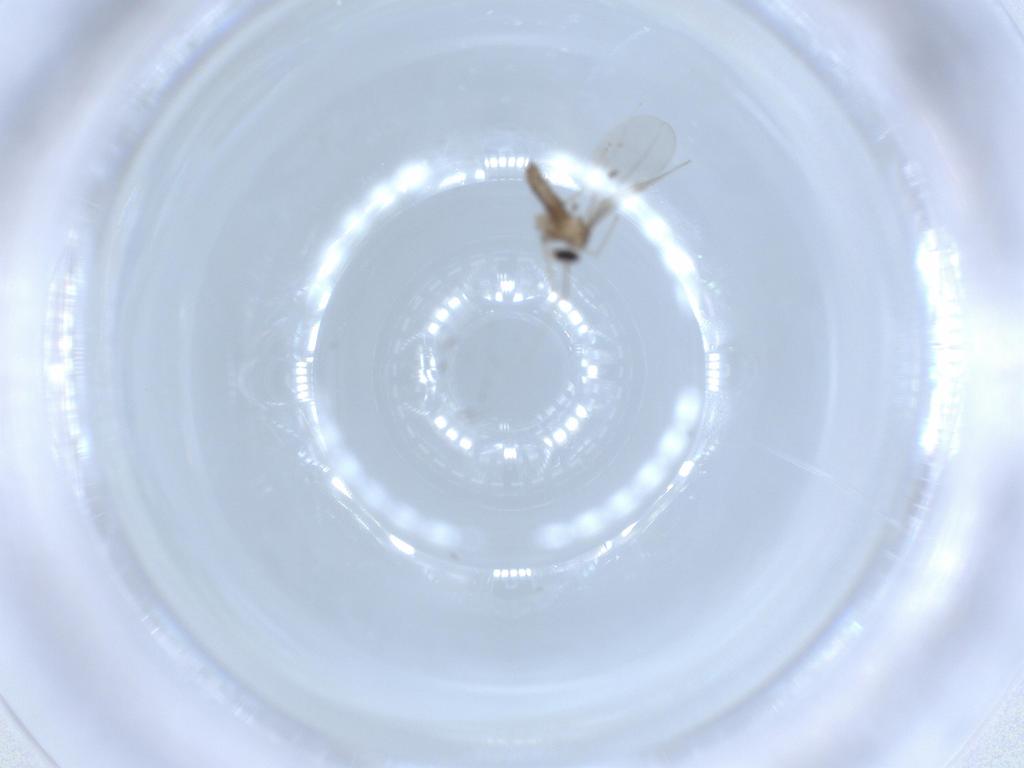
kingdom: Animalia
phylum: Arthropoda
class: Insecta
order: Diptera
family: Cecidomyiidae
